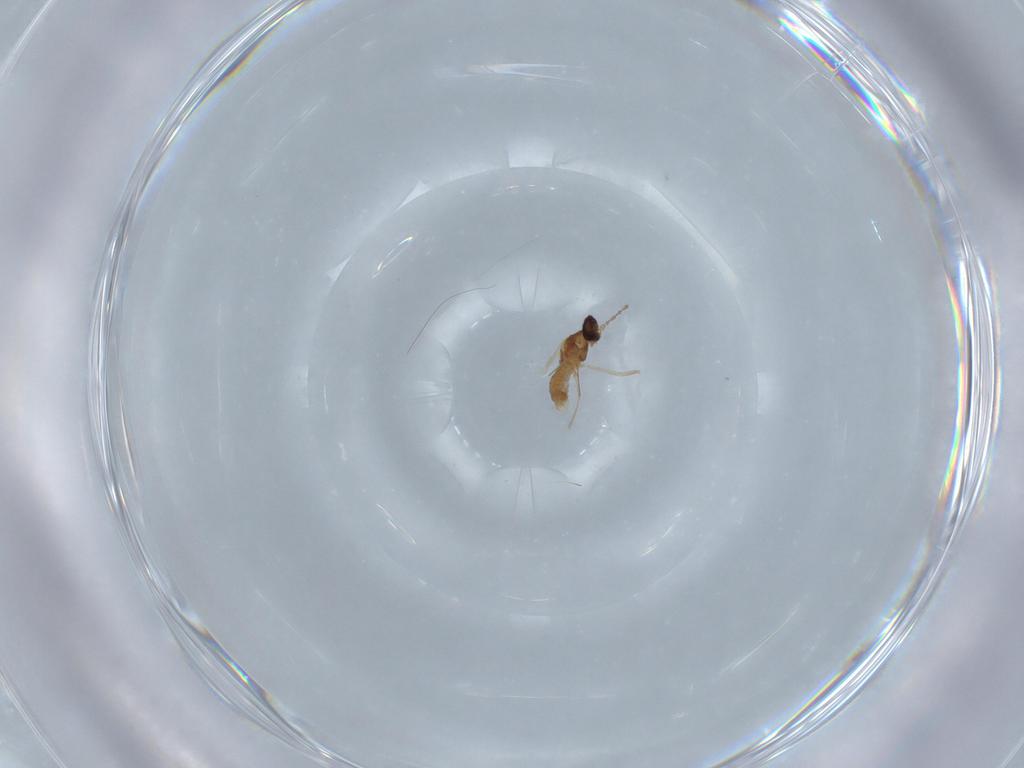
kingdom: Animalia
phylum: Arthropoda
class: Insecta
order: Diptera
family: Cecidomyiidae
